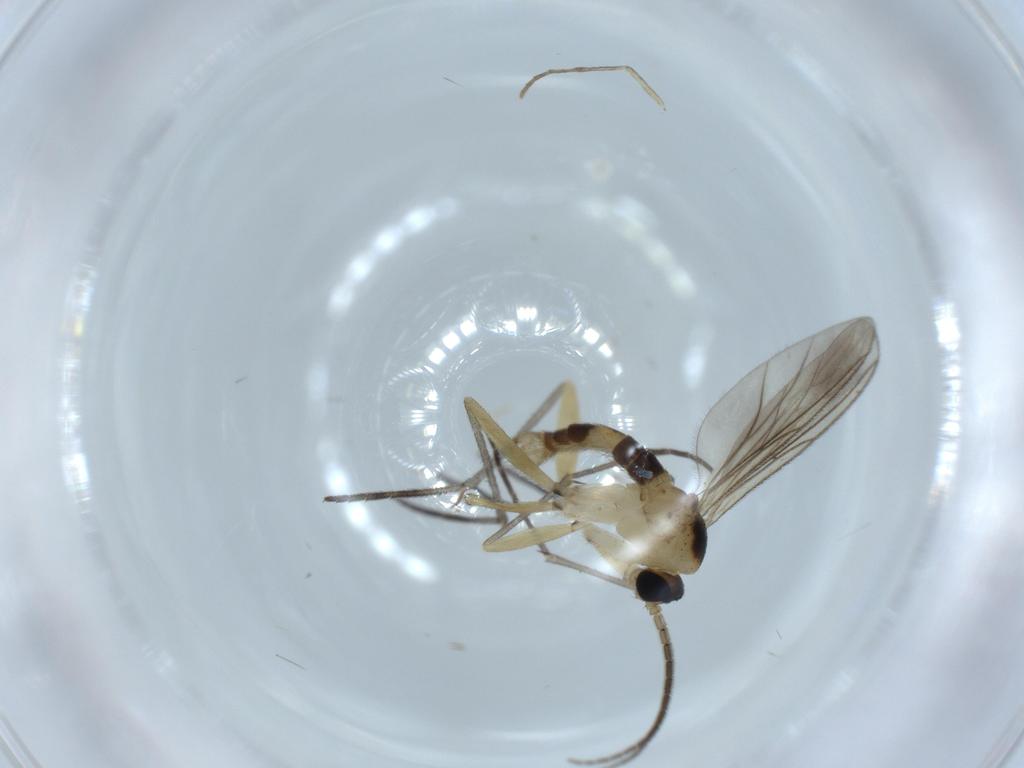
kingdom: Animalia
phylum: Arthropoda
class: Insecta
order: Diptera
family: Sciaridae
